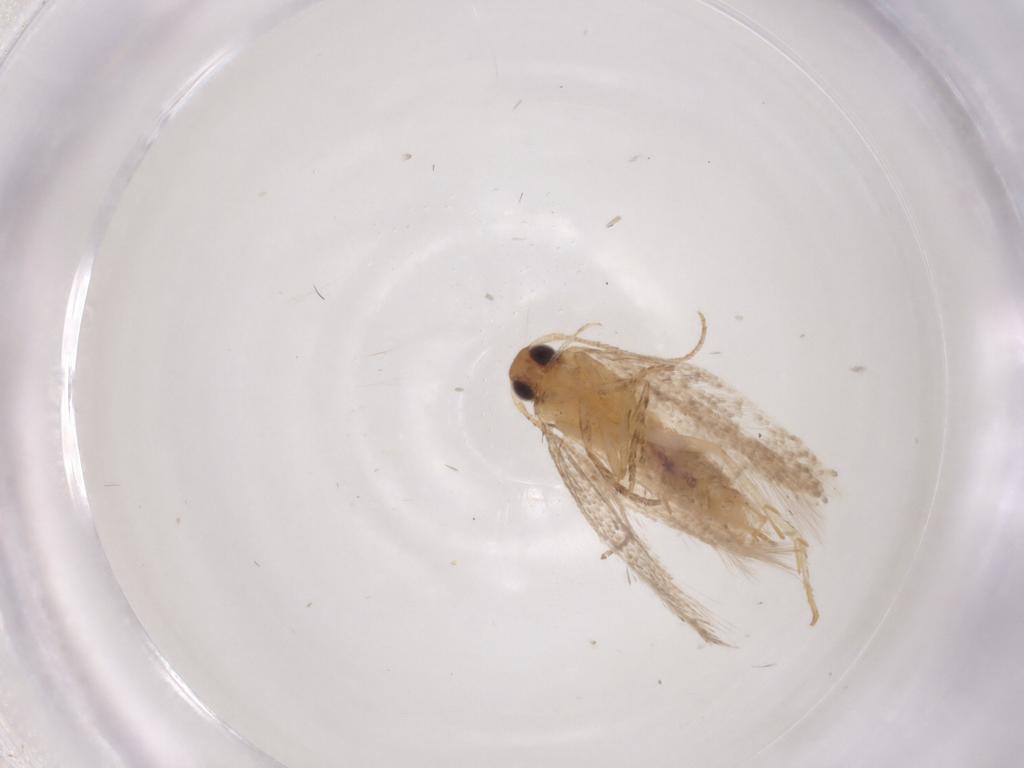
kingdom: Animalia
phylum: Arthropoda
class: Insecta
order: Lepidoptera
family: Gelechiidae
